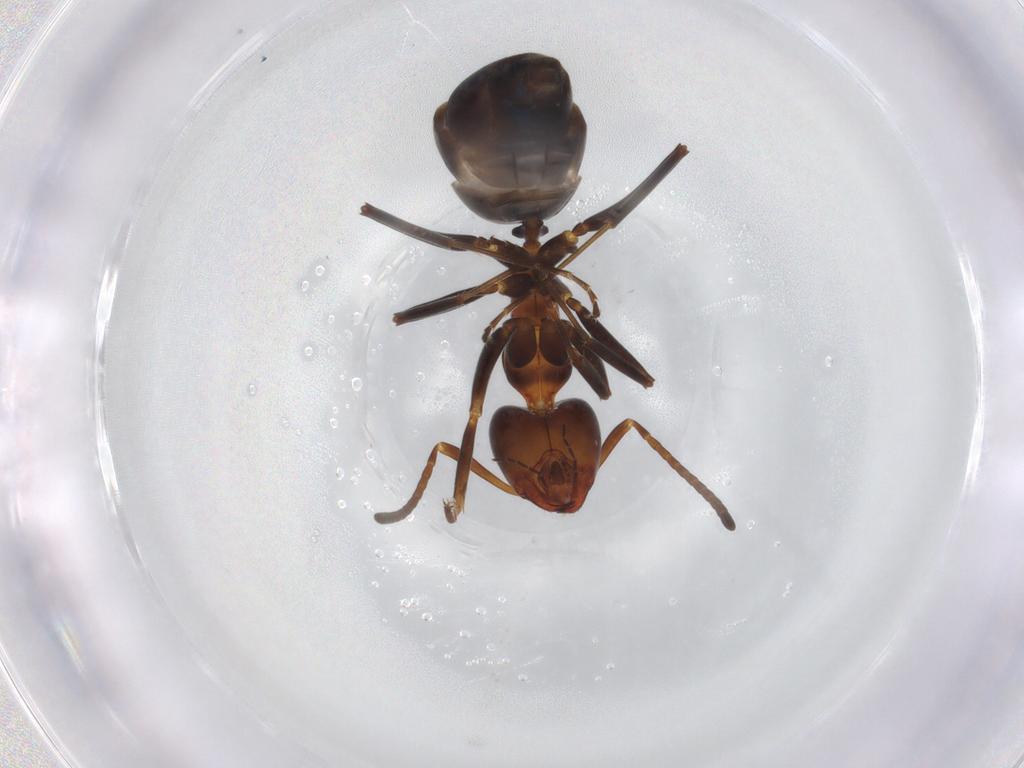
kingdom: Animalia
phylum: Arthropoda
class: Insecta
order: Hymenoptera
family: Formicidae
